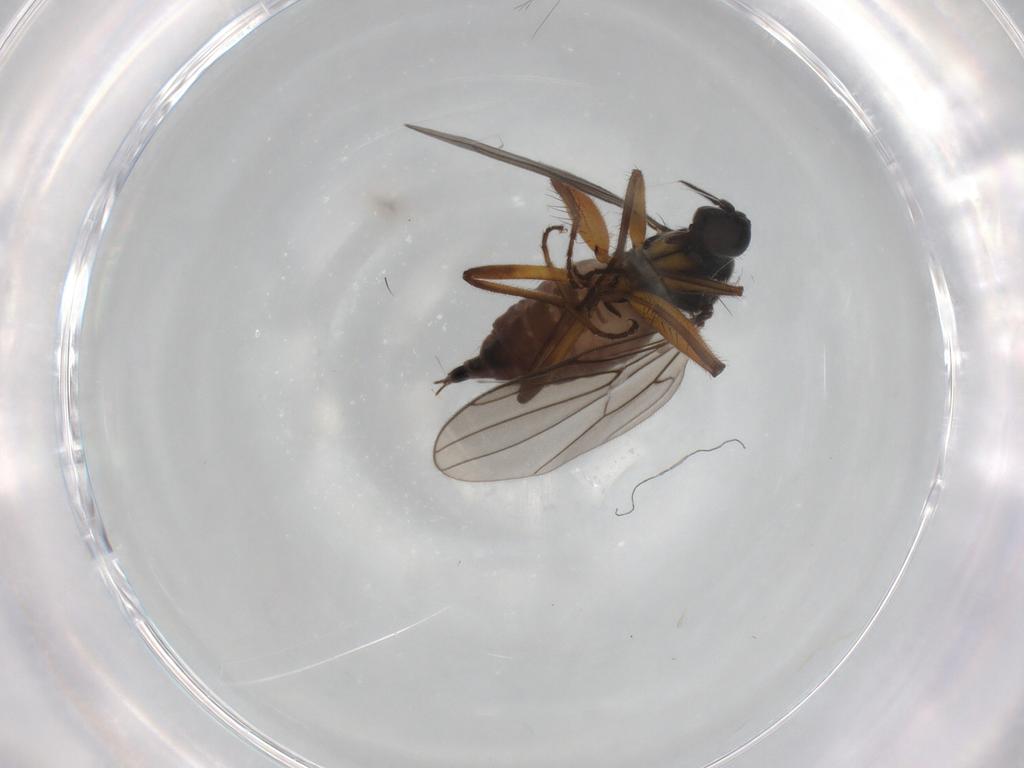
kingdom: Animalia
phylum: Arthropoda
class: Insecta
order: Diptera
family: Hybotidae
